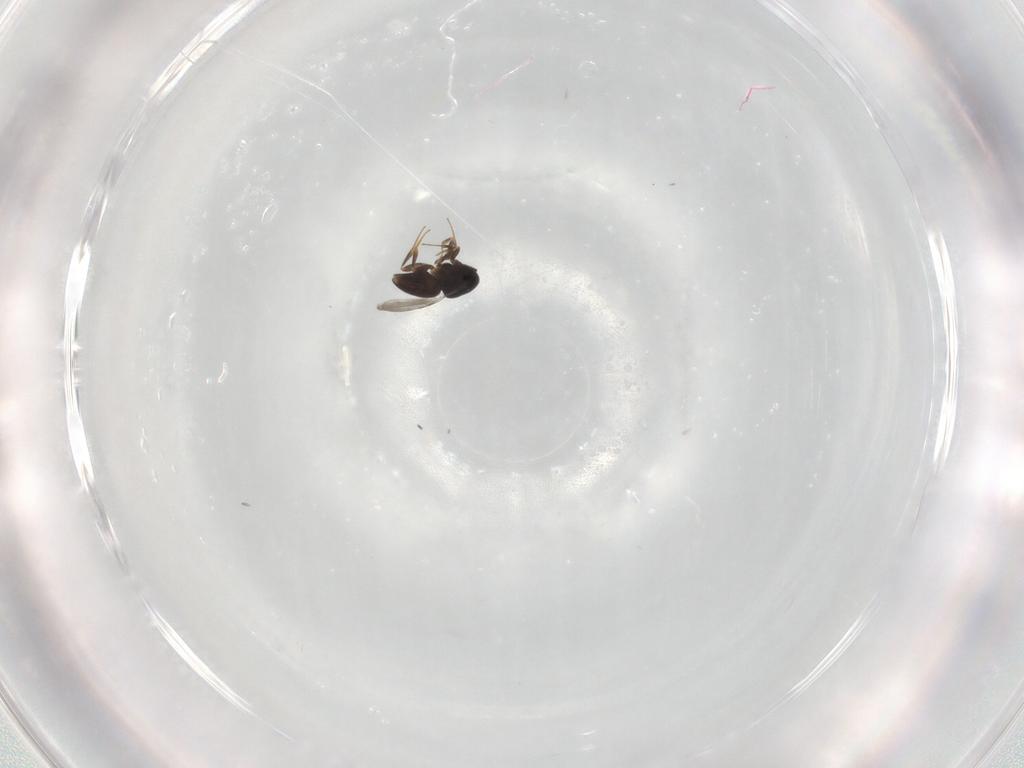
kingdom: Animalia
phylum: Arthropoda
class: Insecta
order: Hymenoptera
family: Ceraphronidae
